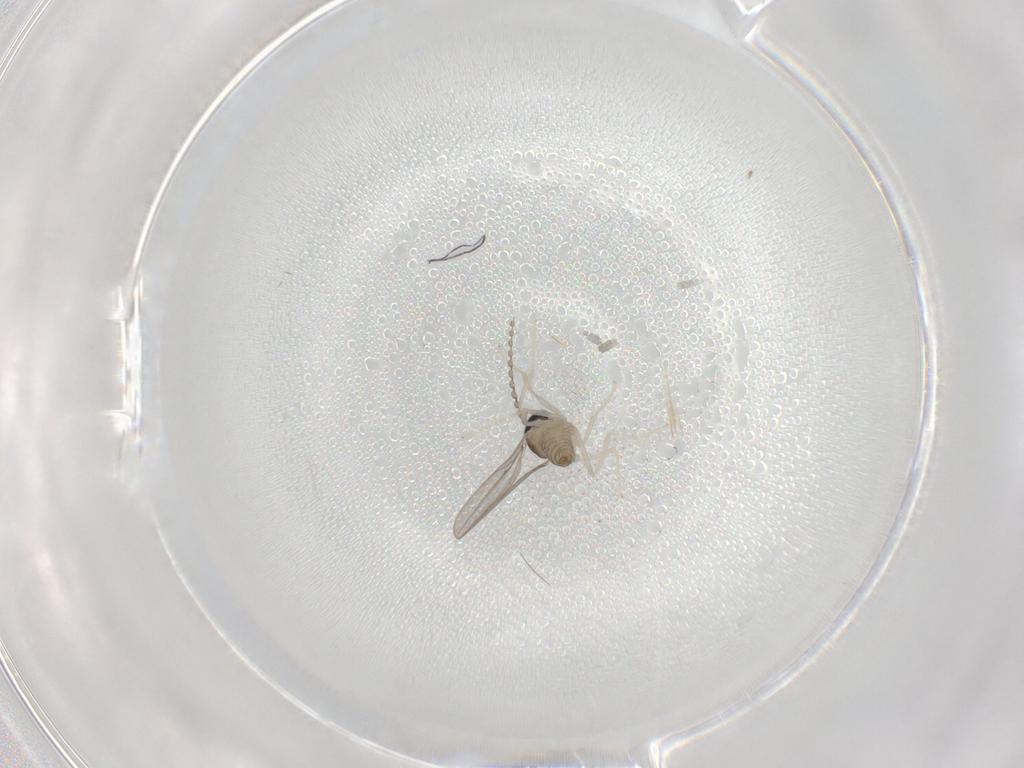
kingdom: Animalia
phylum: Arthropoda
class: Insecta
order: Diptera
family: Cecidomyiidae
